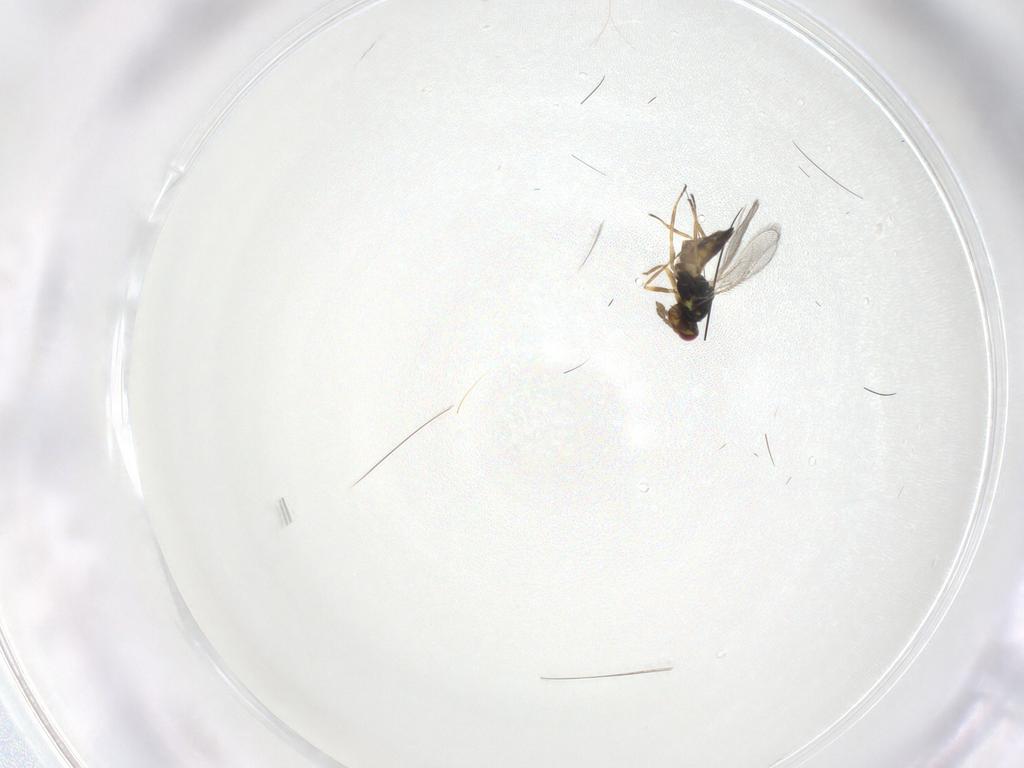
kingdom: Animalia
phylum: Arthropoda
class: Insecta
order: Hymenoptera
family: Eulophidae
